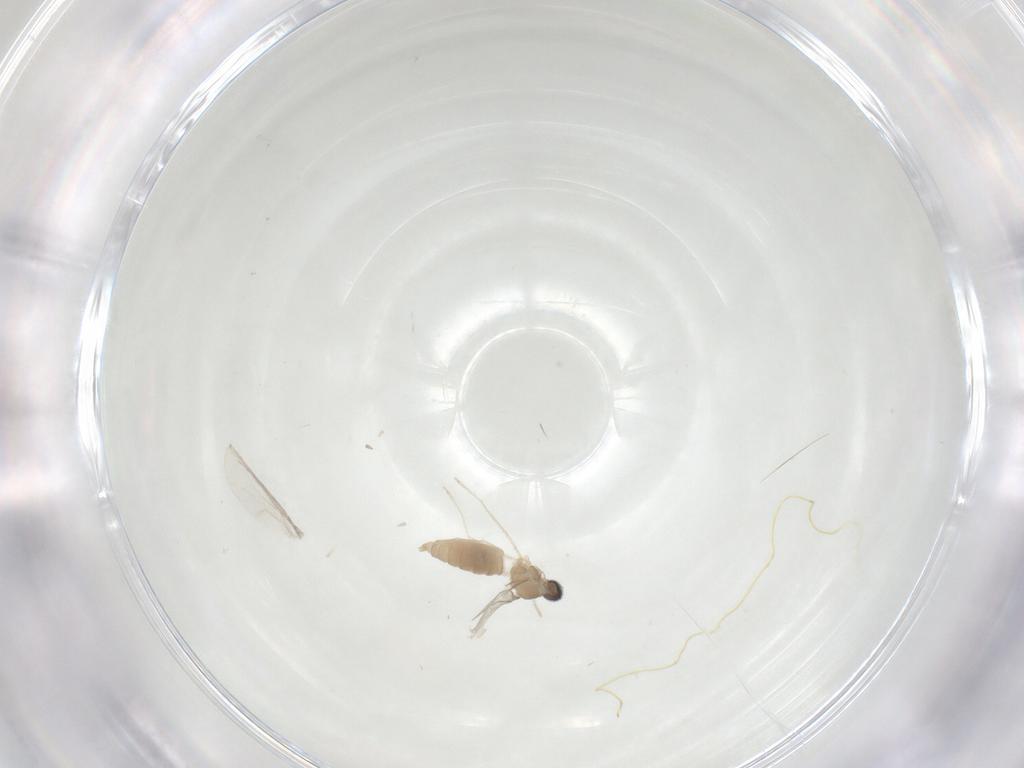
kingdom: Animalia
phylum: Arthropoda
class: Insecta
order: Diptera
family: Cecidomyiidae
